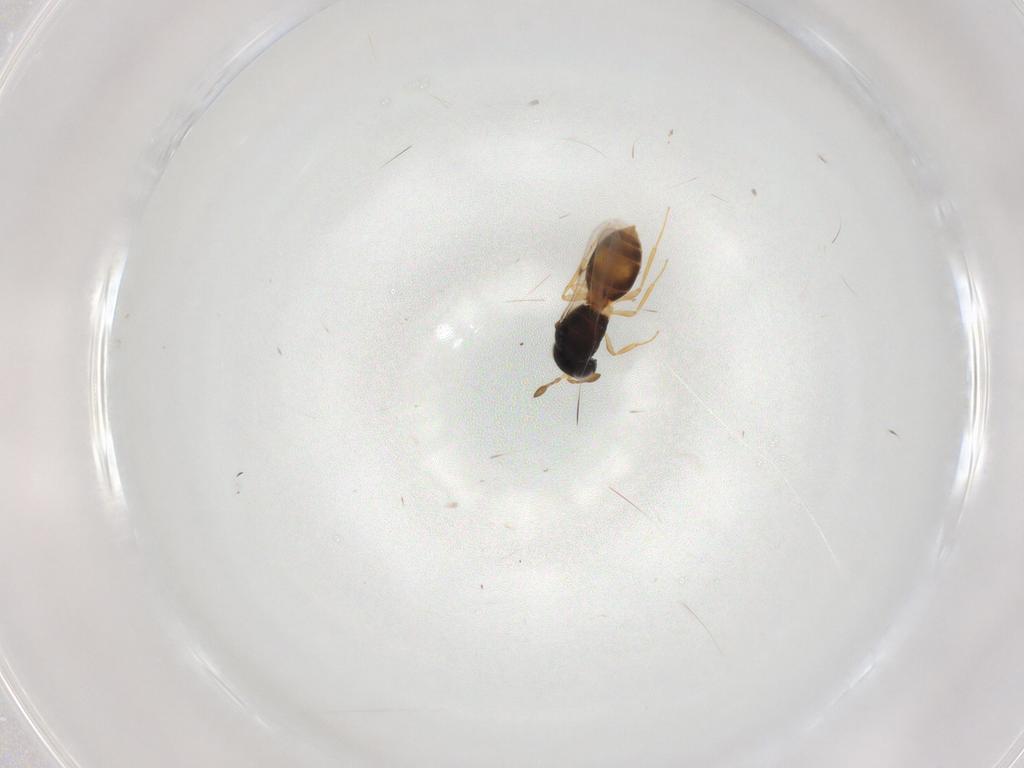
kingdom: Animalia
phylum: Arthropoda
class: Insecta
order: Hymenoptera
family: Scelionidae
